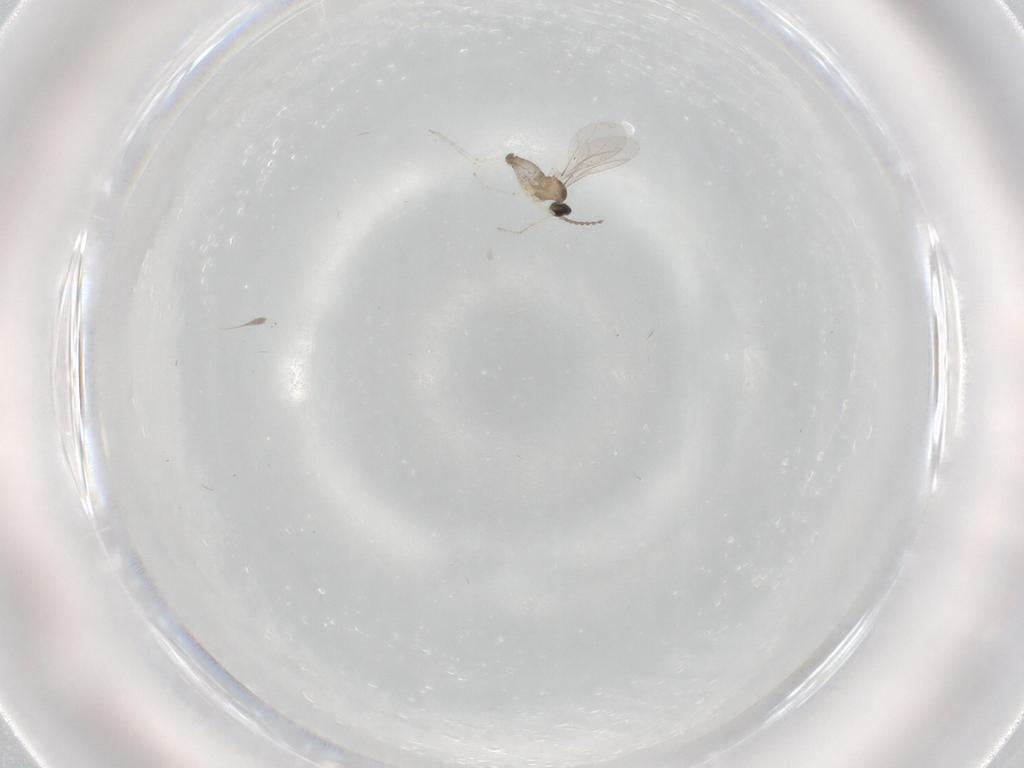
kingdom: Animalia
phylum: Arthropoda
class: Insecta
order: Diptera
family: Cecidomyiidae
